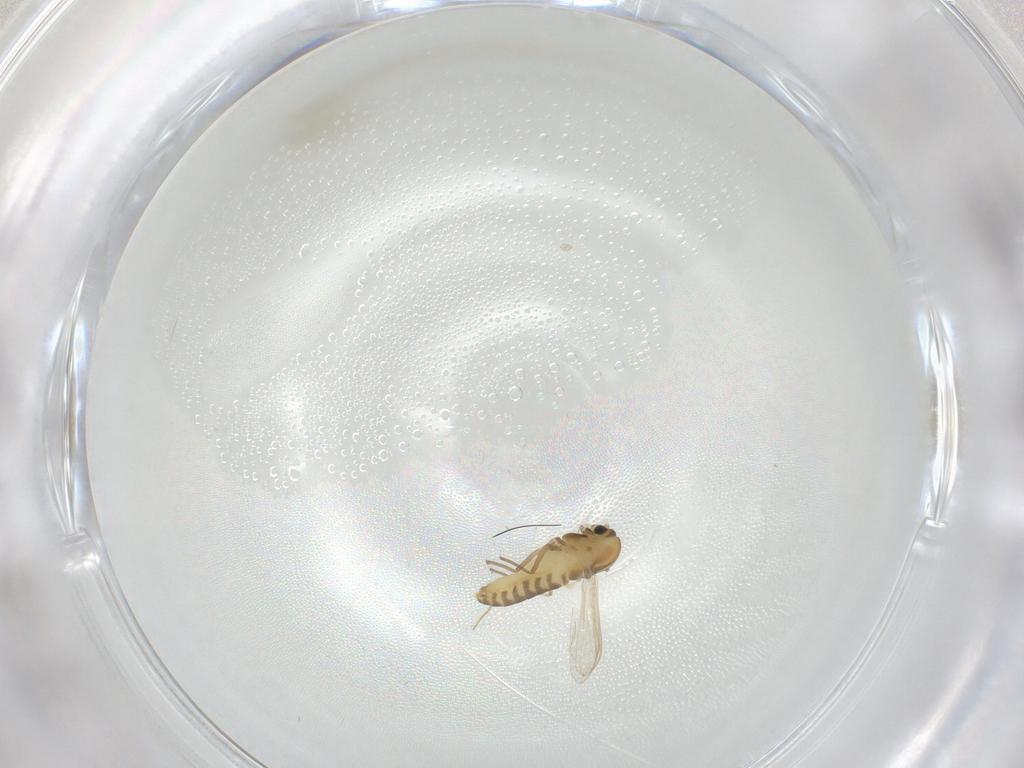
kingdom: Animalia
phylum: Arthropoda
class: Insecta
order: Diptera
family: Chironomidae
